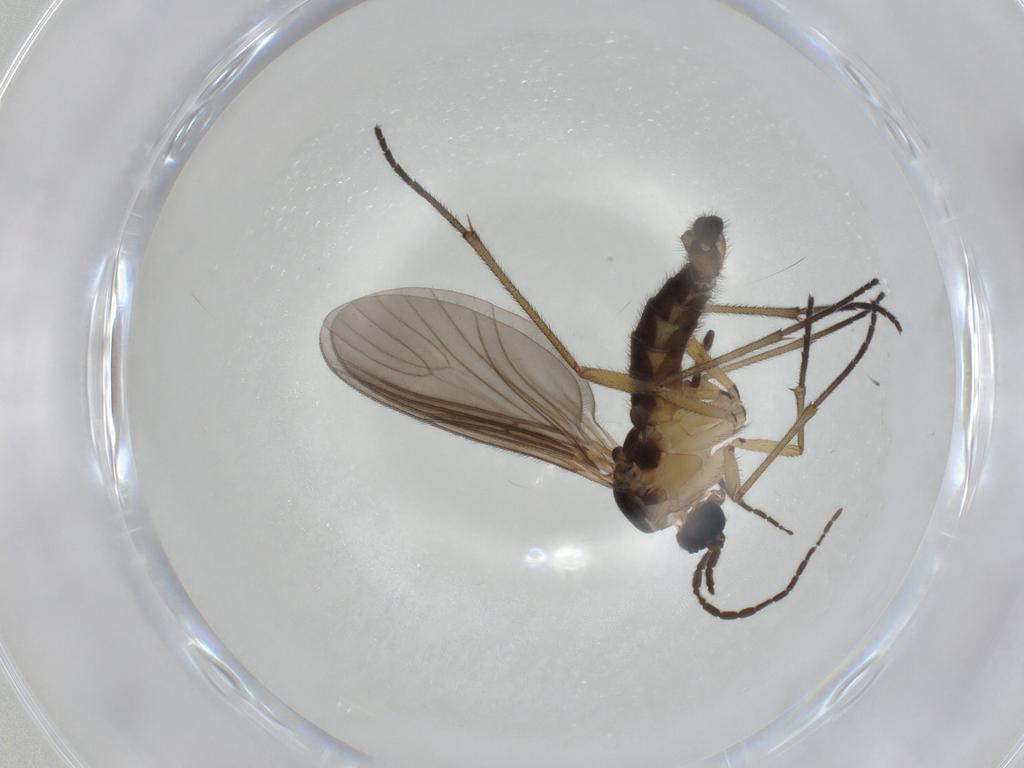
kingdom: Animalia
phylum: Arthropoda
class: Insecta
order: Diptera
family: Sciaridae
